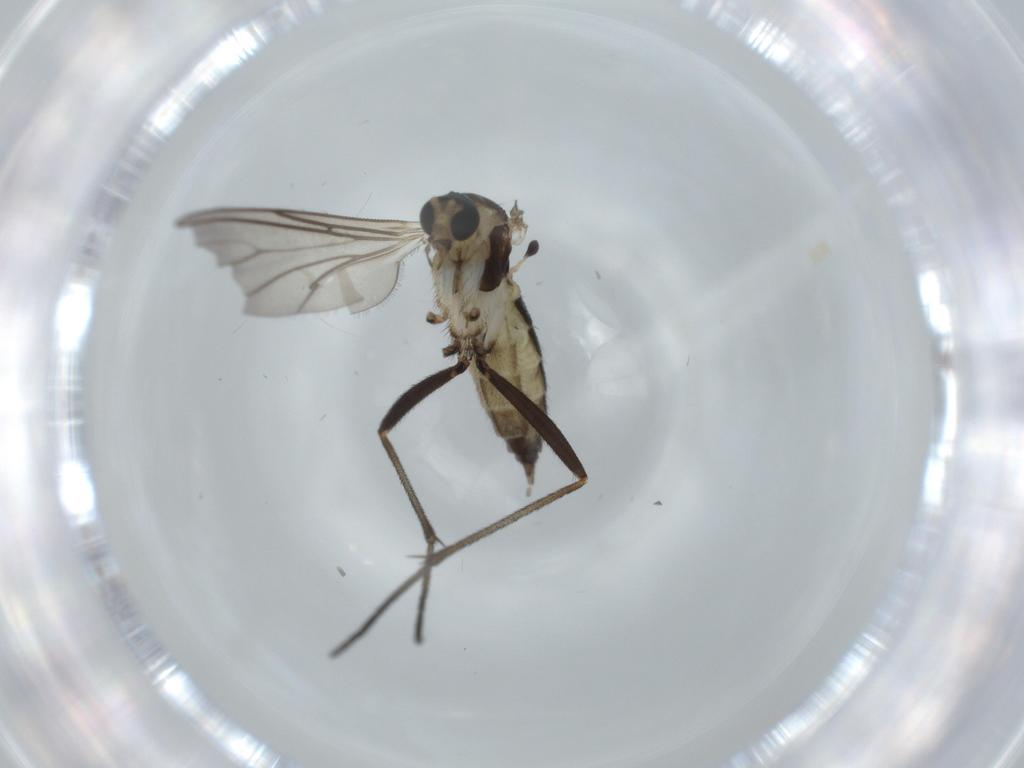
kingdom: Animalia
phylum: Arthropoda
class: Insecta
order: Diptera
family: Sciaridae
